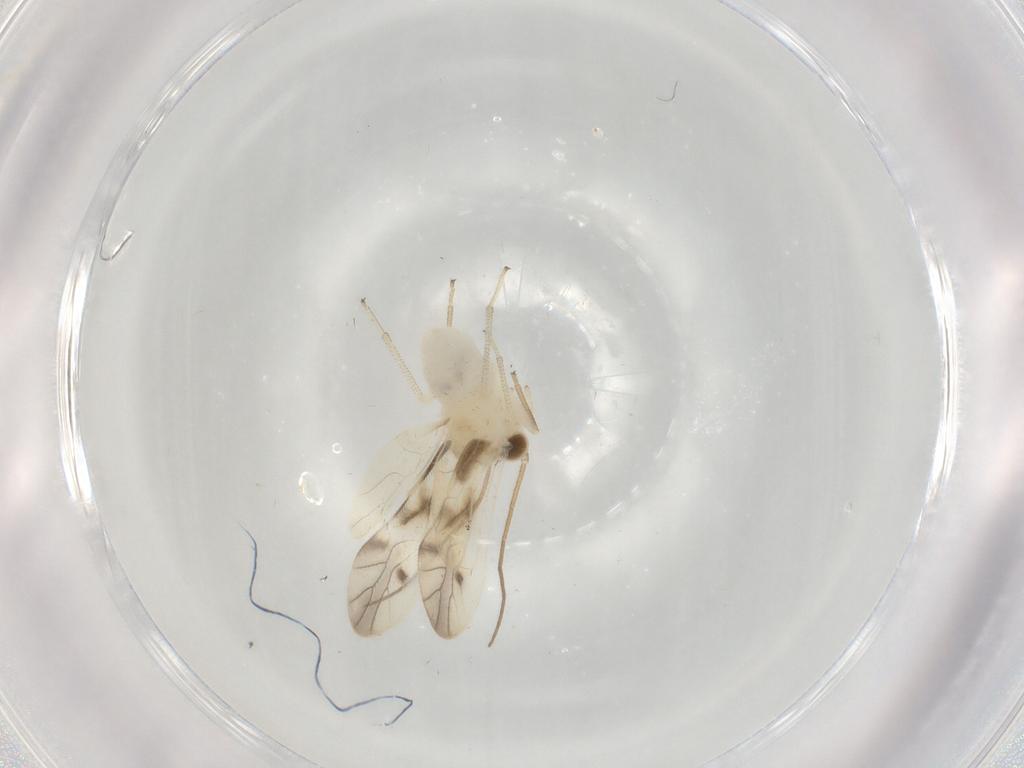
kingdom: Animalia
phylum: Arthropoda
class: Insecta
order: Psocodea
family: Caeciliusidae
